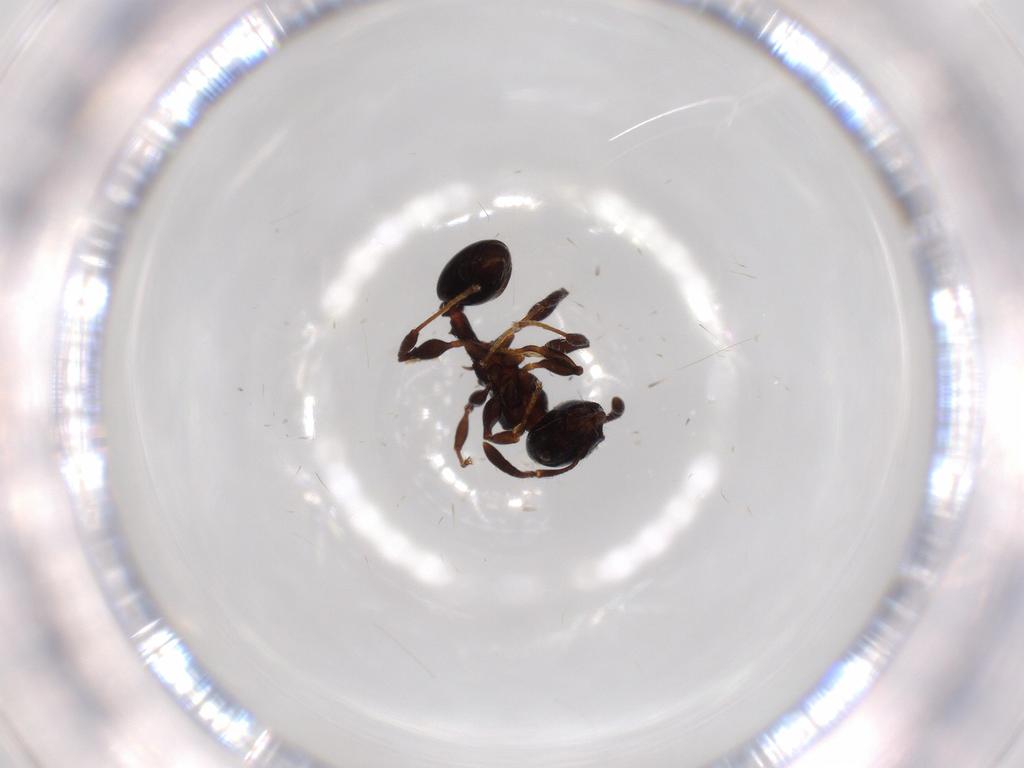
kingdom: Animalia
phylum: Arthropoda
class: Insecta
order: Hymenoptera
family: Formicidae
